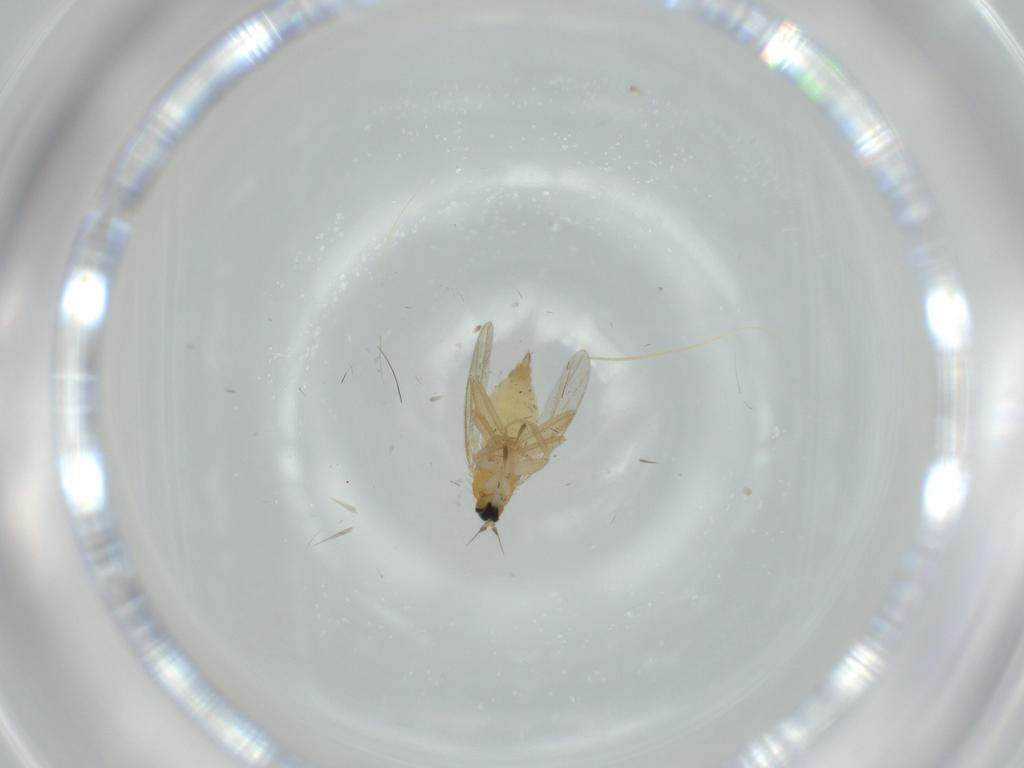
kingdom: Animalia
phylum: Arthropoda
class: Insecta
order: Diptera
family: Hybotidae
